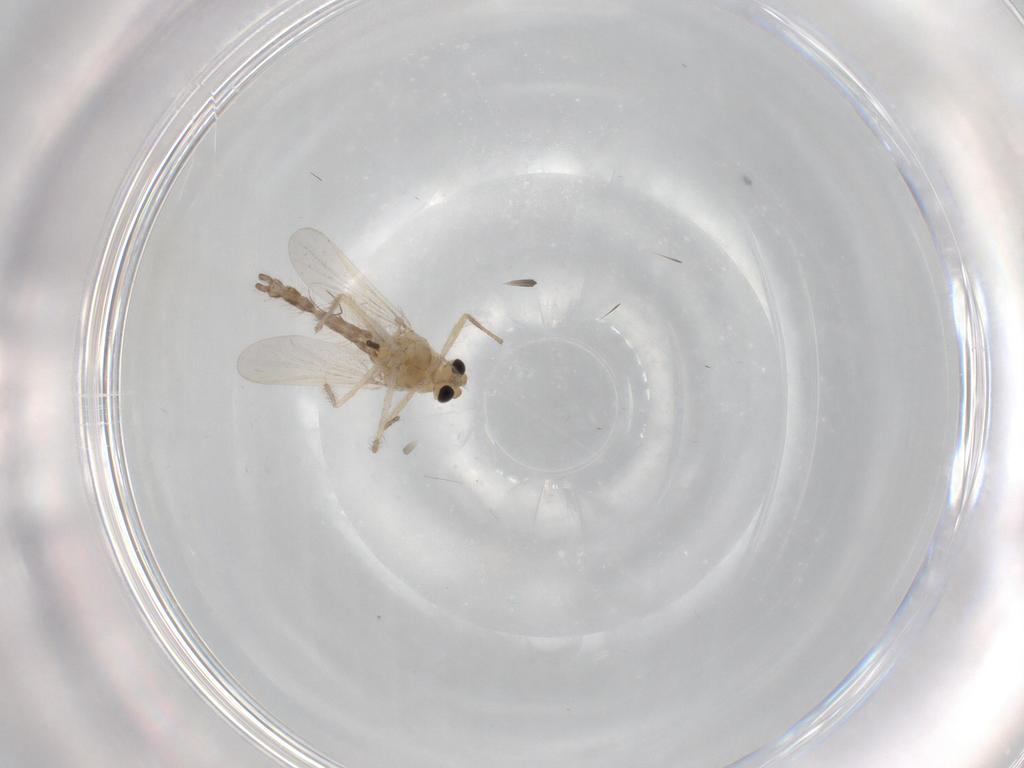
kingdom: Animalia
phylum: Arthropoda
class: Insecta
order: Diptera
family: Chironomidae
